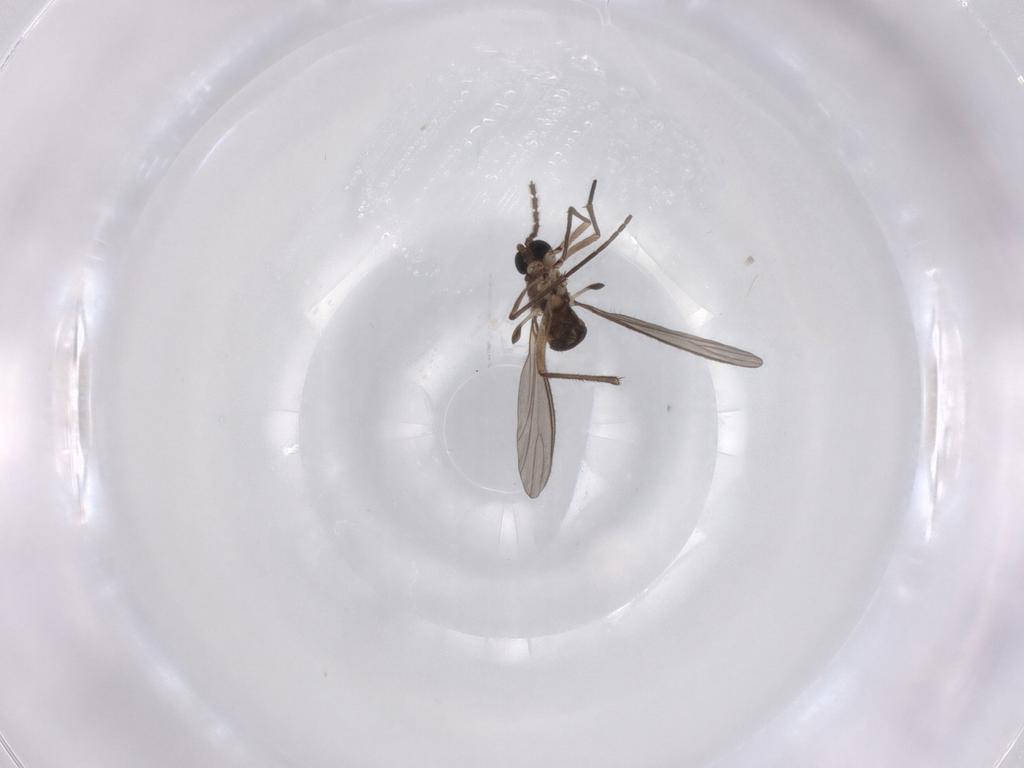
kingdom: Animalia
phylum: Arthropoda
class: Insecta
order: Diptera
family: Sciaridae
